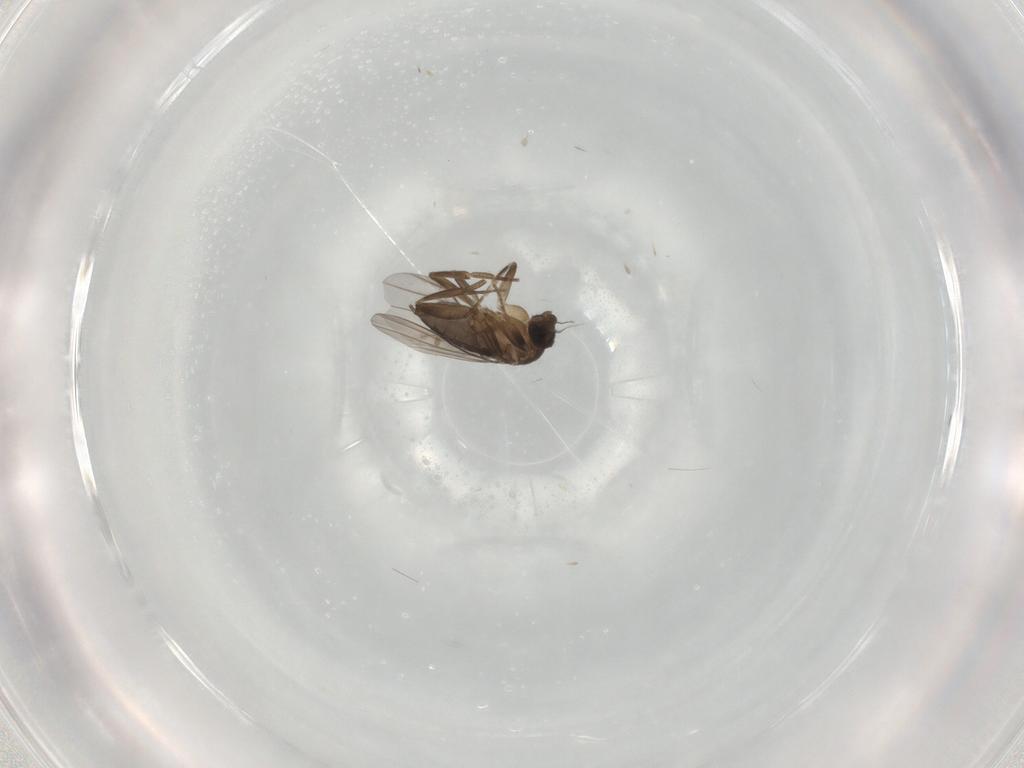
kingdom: Animalia
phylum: Arthropoda
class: Insecta
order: Diptera
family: Phoridae
